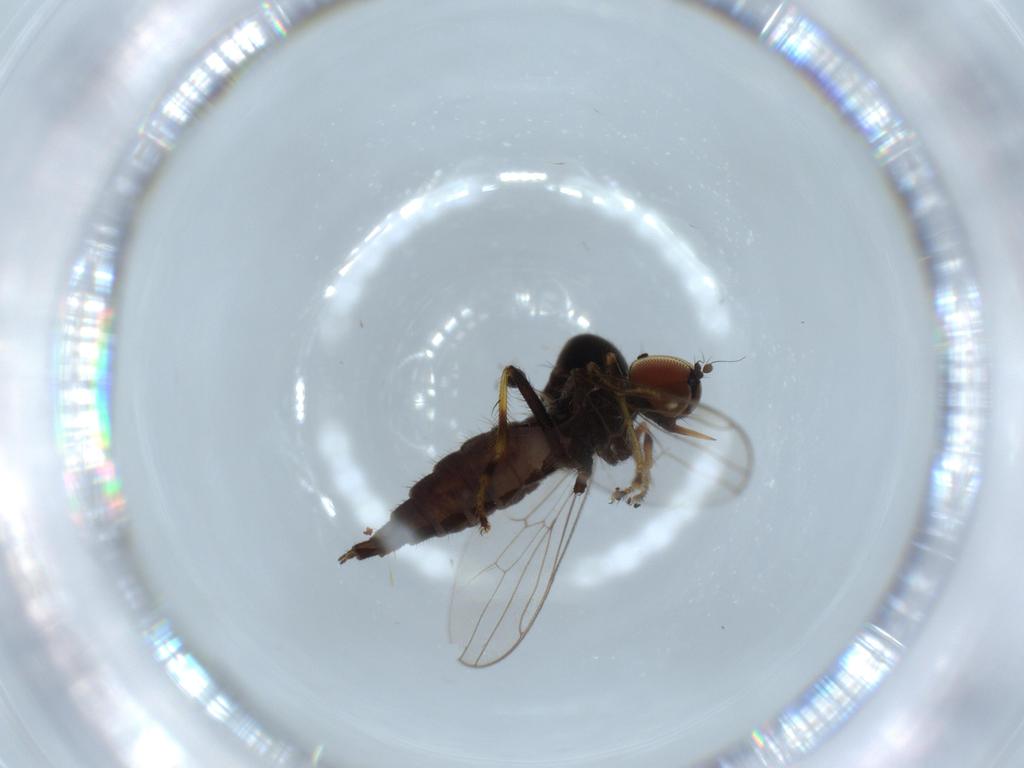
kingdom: Animalia
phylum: Arthropoda
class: Insecta
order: Diptera
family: Hybotidae
